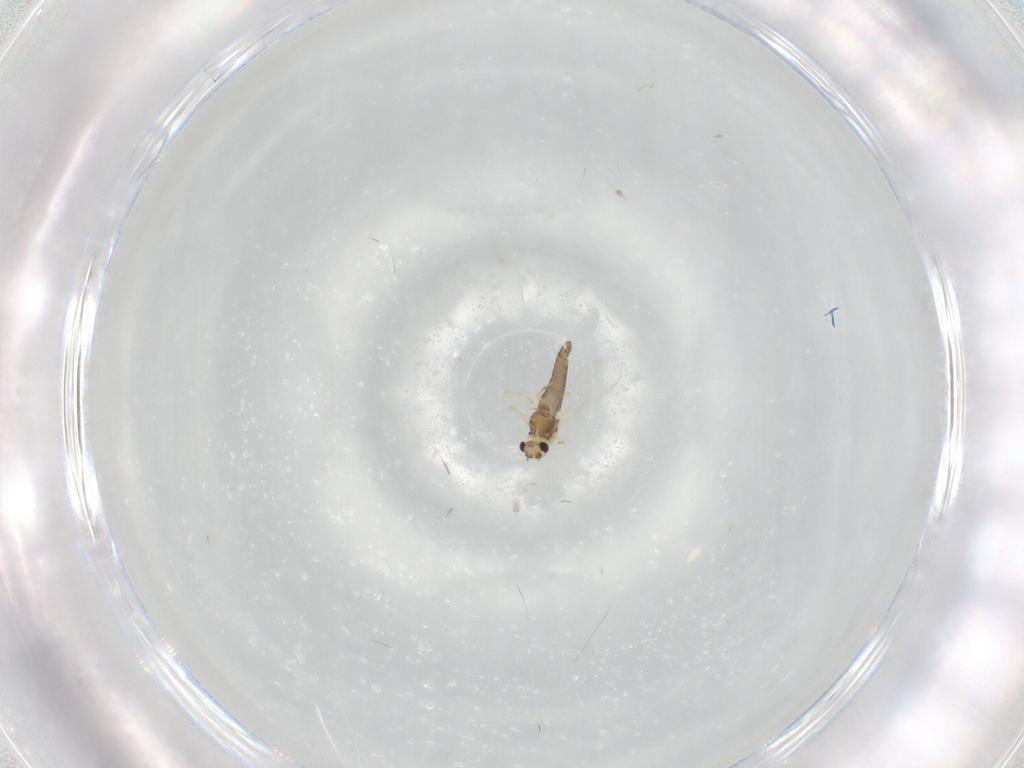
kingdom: Animalia
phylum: Arthropoda
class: Insecta
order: Diptera
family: Chironomidae
